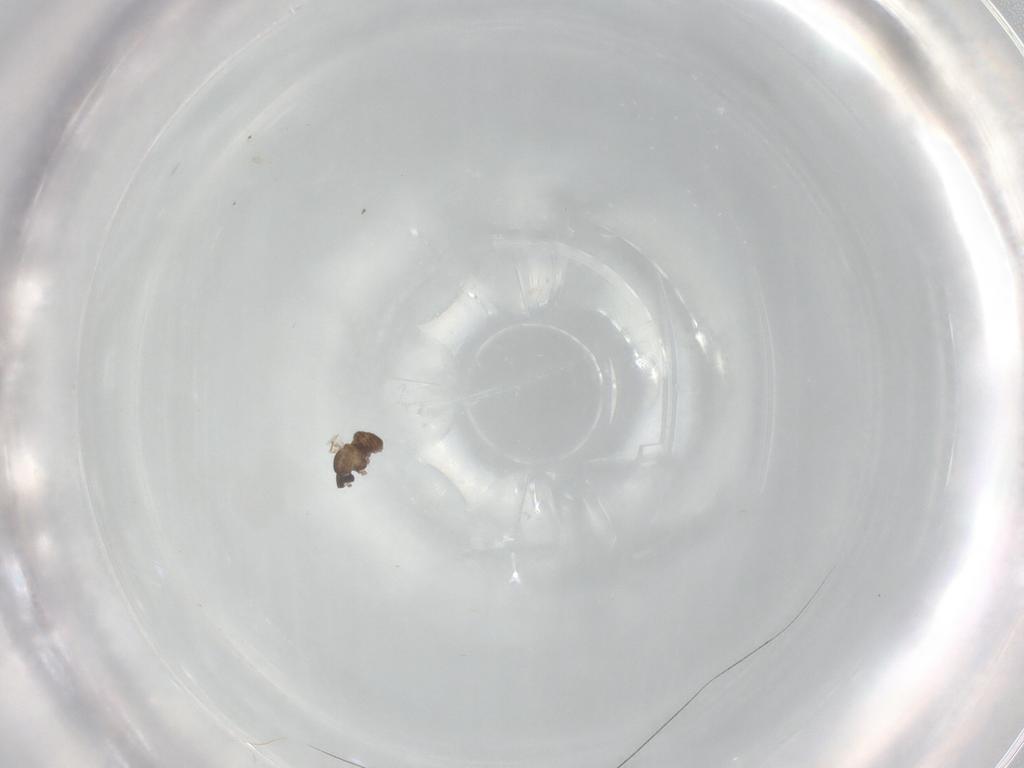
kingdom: Animalia
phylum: Arthropoda
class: Insecta
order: Diptera
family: Cecidomyiidae
